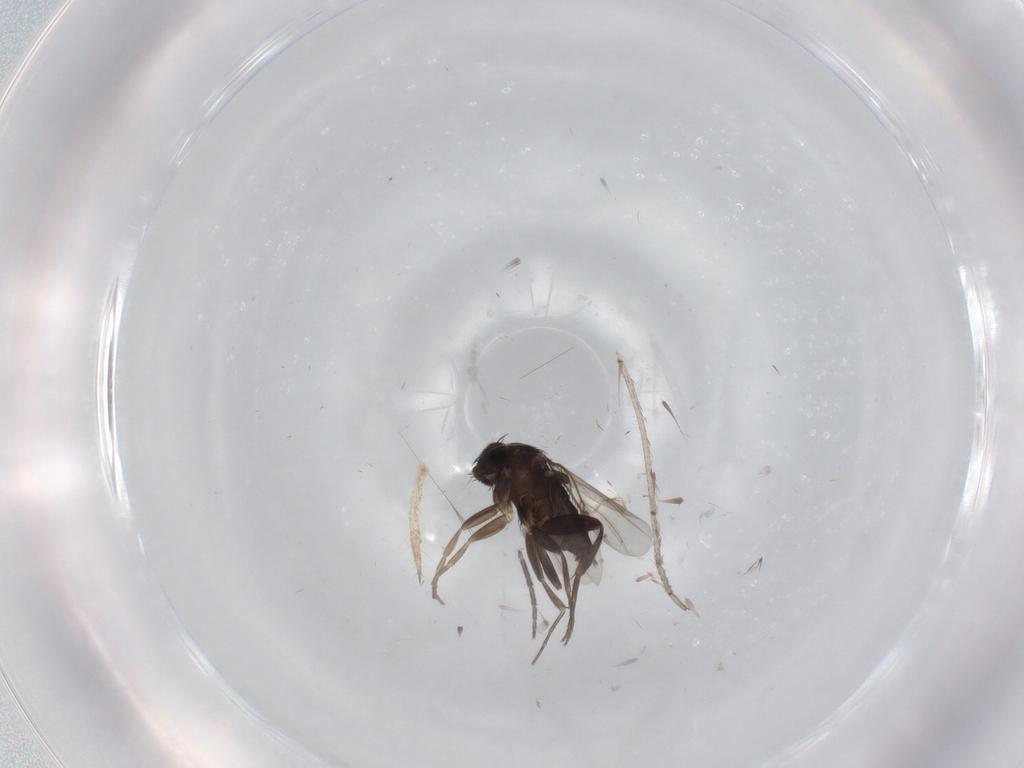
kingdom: Animalia
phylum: Arthropoda
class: Insecta
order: Diptera
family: Phoridae
